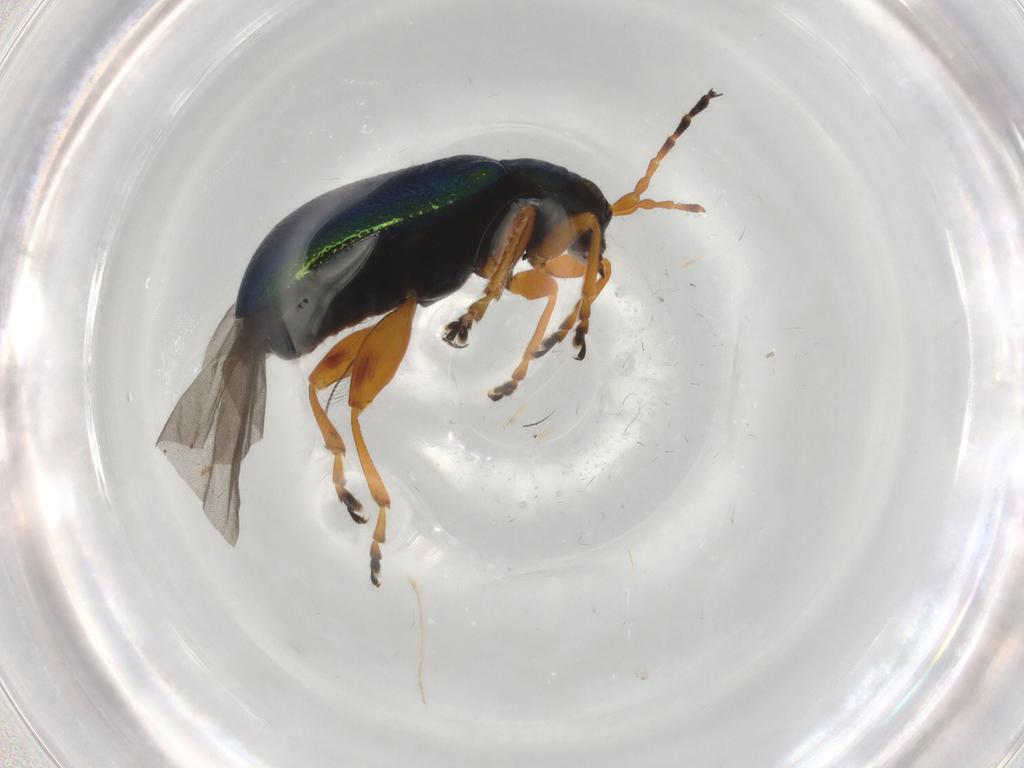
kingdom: Animalia
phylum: Arthropoda
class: Insecta
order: Coleoptera
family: Chrysomelidae
